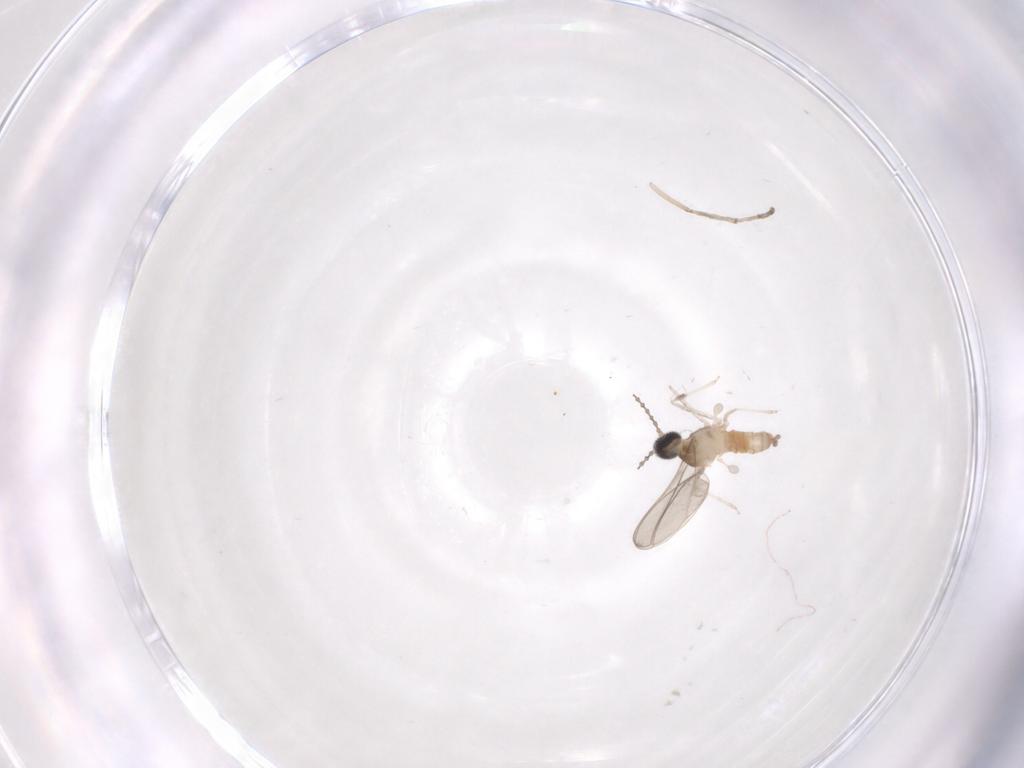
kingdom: Animalia
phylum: Arthropoda
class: Insecta
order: Diptera
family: Cecidomyiidae
